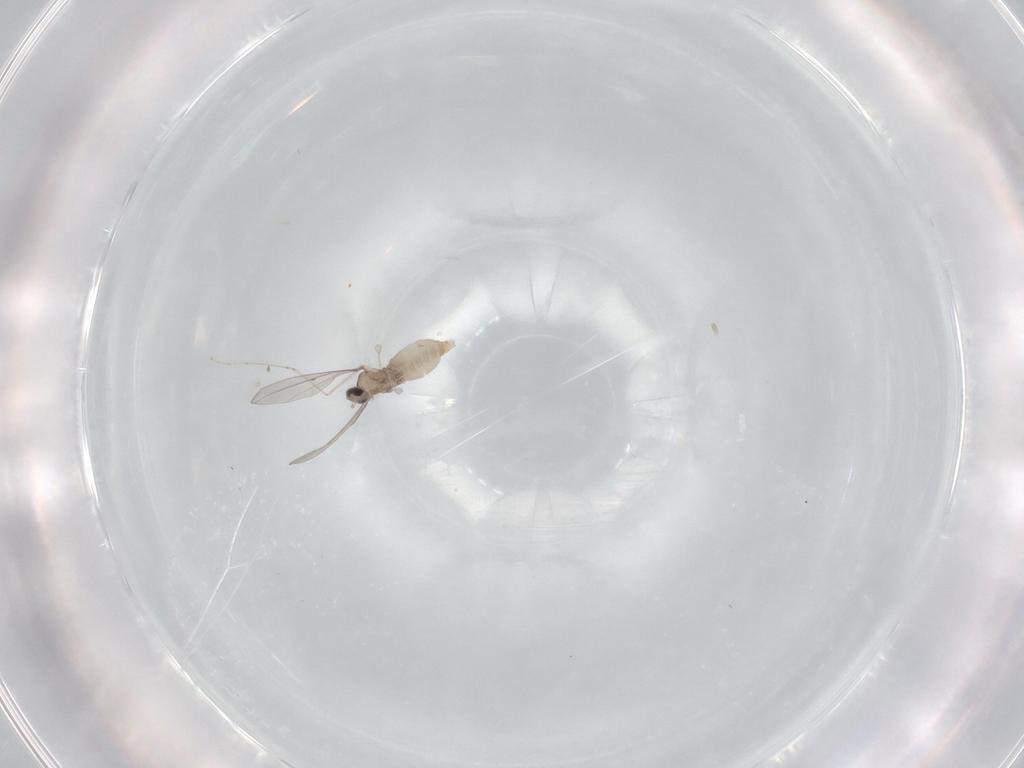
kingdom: Animalia
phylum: Arthropoda
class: Insecta
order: Diptera
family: Cecidomyiidae
